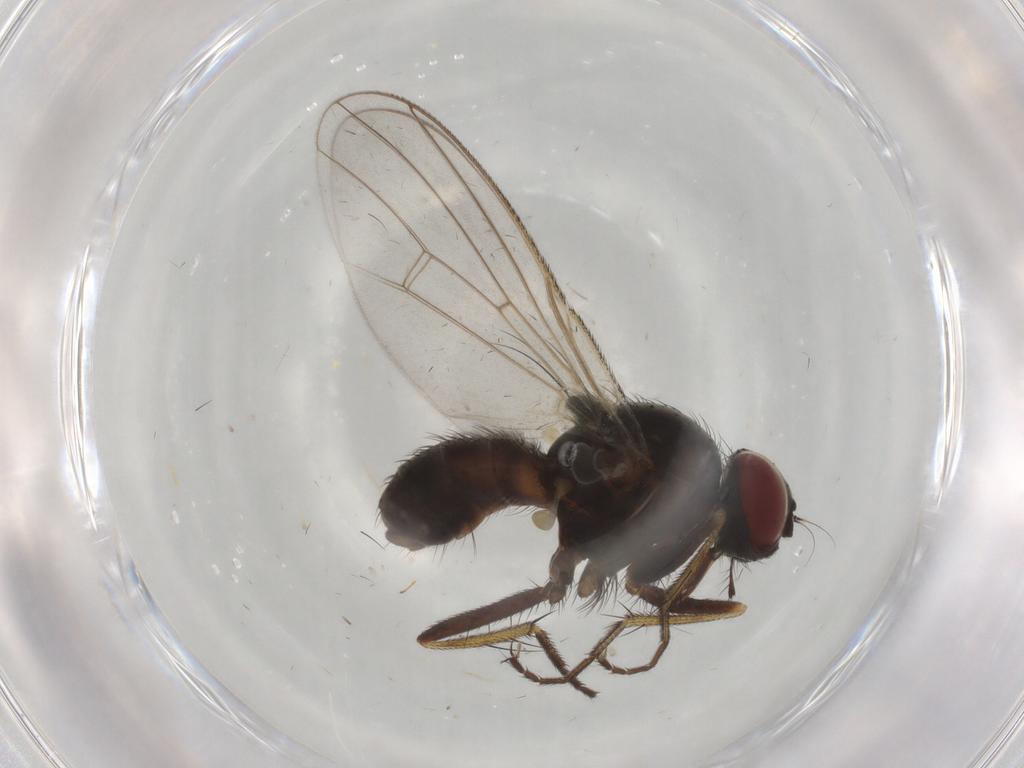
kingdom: Animalia
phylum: Arthropoda
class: Insecta
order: Diptera
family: Muscidae
